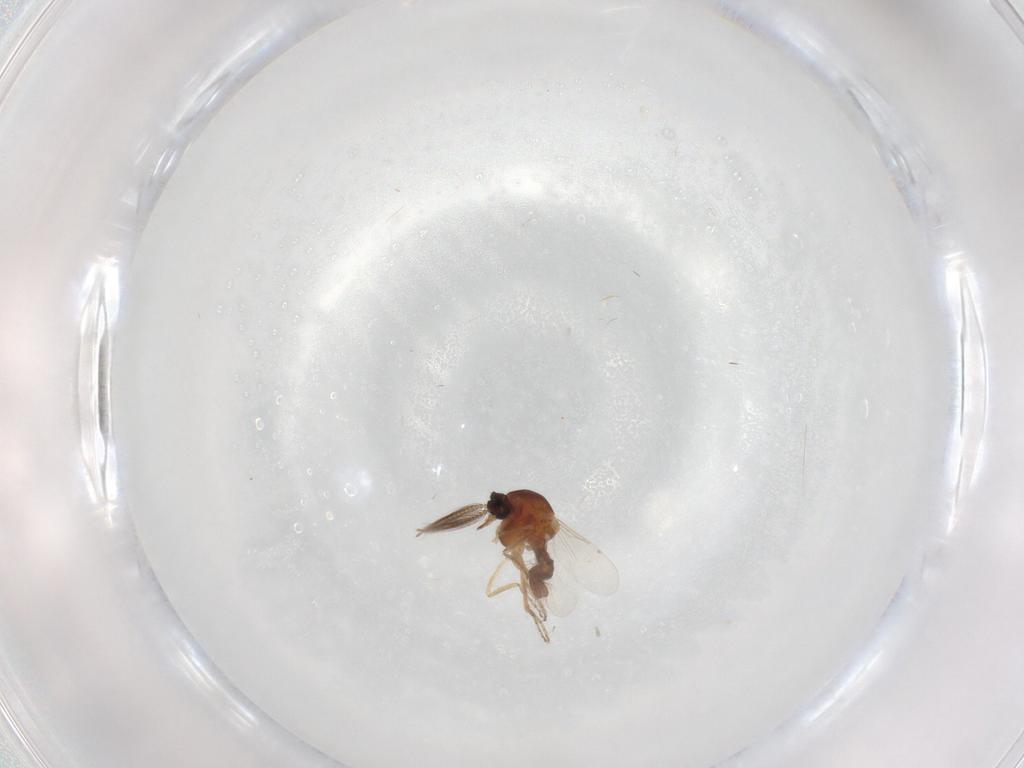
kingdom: Animalia
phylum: Arthropoda
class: Insecta
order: Diptera
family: Ceratopogonidae
